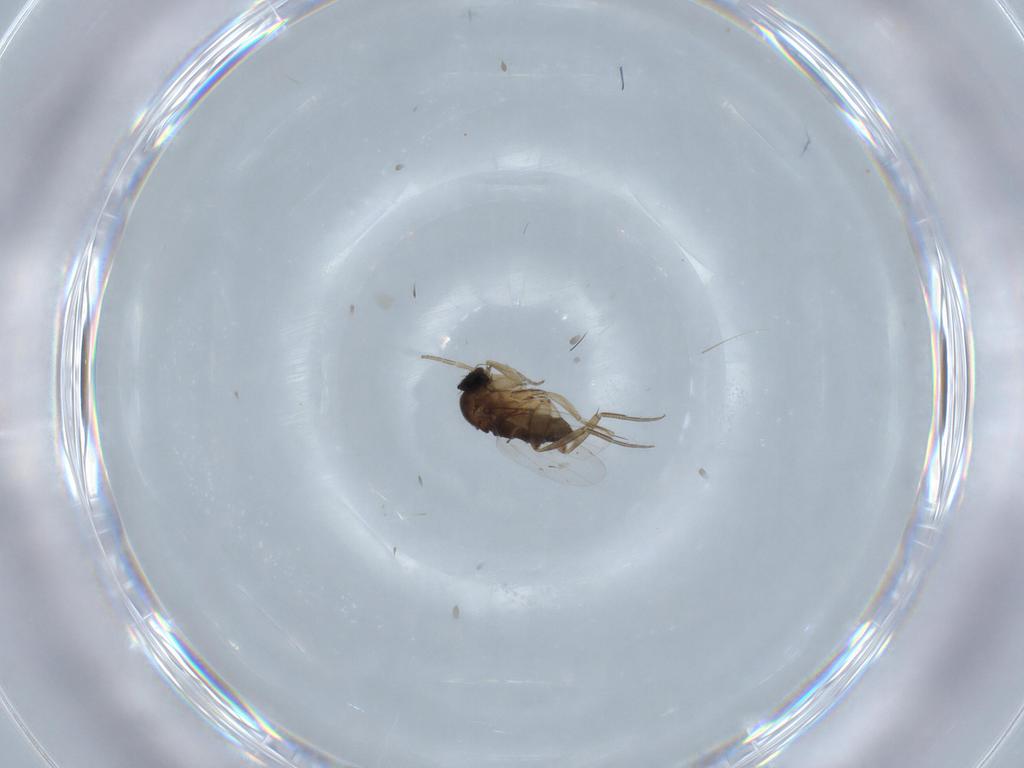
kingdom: Animalia
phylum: Arthropoda
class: Insecta
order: Diptera
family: Phoridae
